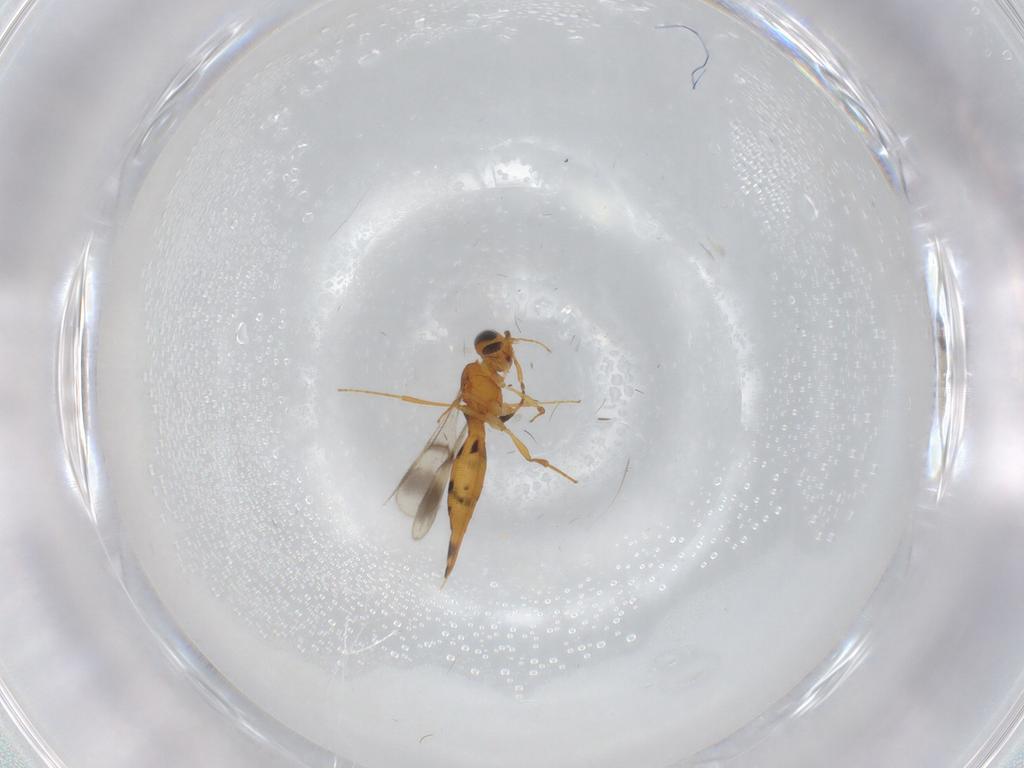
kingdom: Animalia
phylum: Arthropoda
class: Insecta
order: Hymenoptera
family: Scelionidae
